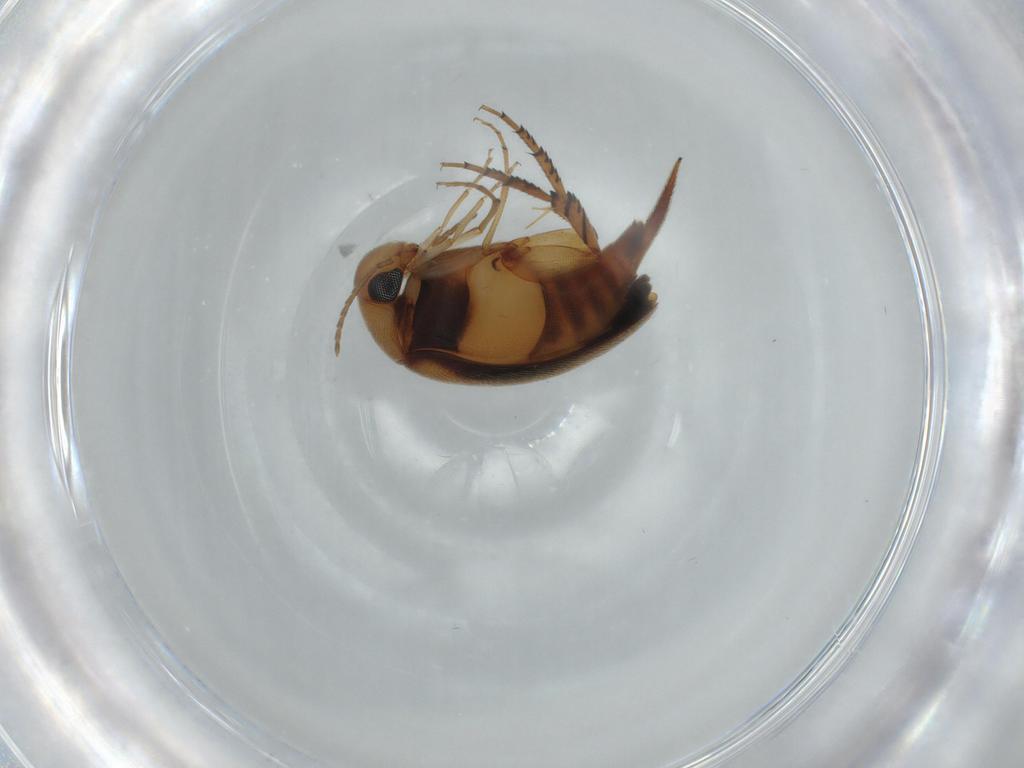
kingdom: Animalia
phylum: Arthropoda
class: Insecta
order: Coleoptera
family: Mordellidae
